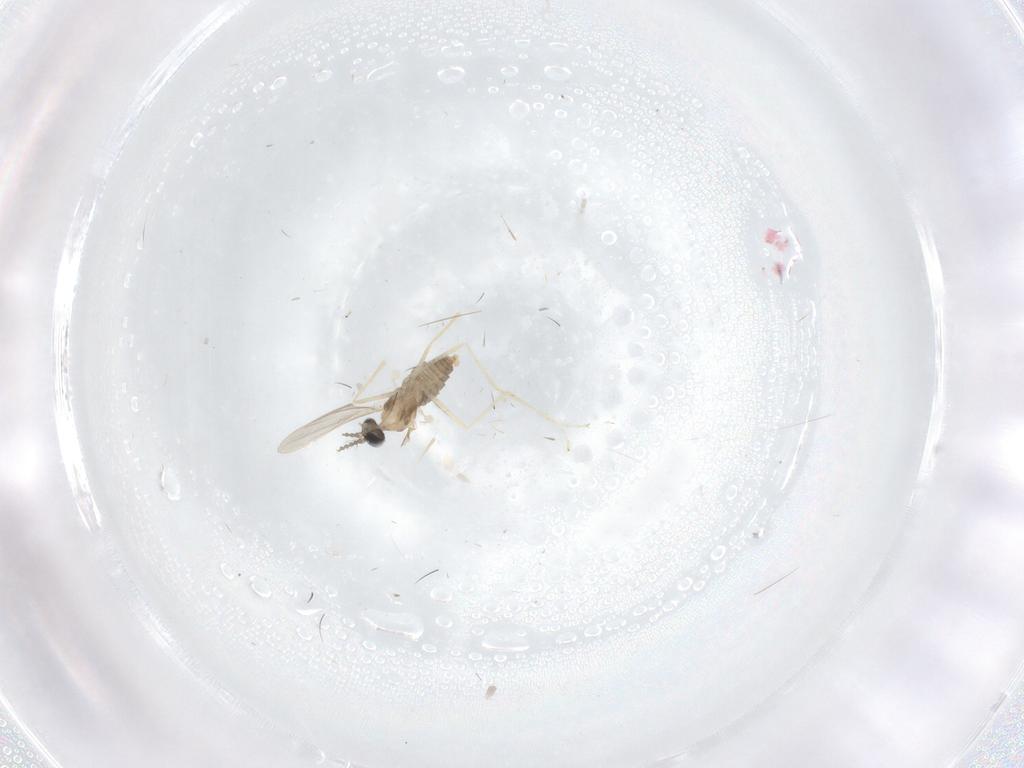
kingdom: Animalia
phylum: Arthropoda
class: Insecta
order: Diptera
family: Cecidomyiidae
